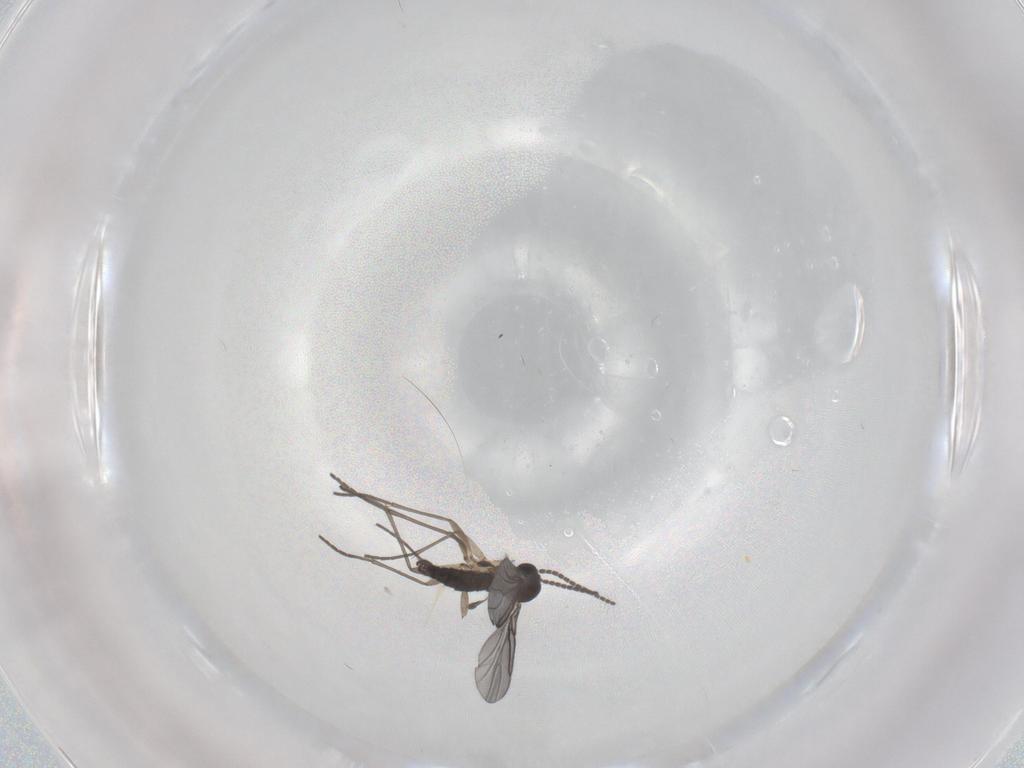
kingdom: Animalia
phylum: Arthropoda
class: Insecta
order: Diptera
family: Sciaridae
